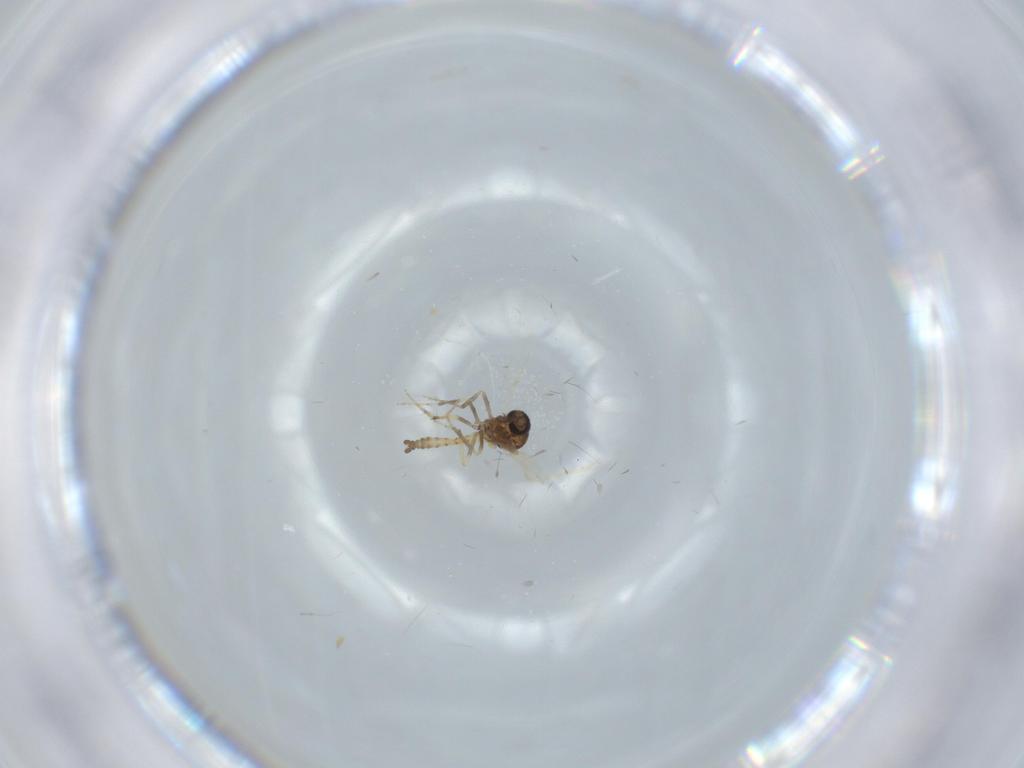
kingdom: Animalia
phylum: Arthropoda
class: Insecta
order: Diptera
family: Ceratopogonidae
